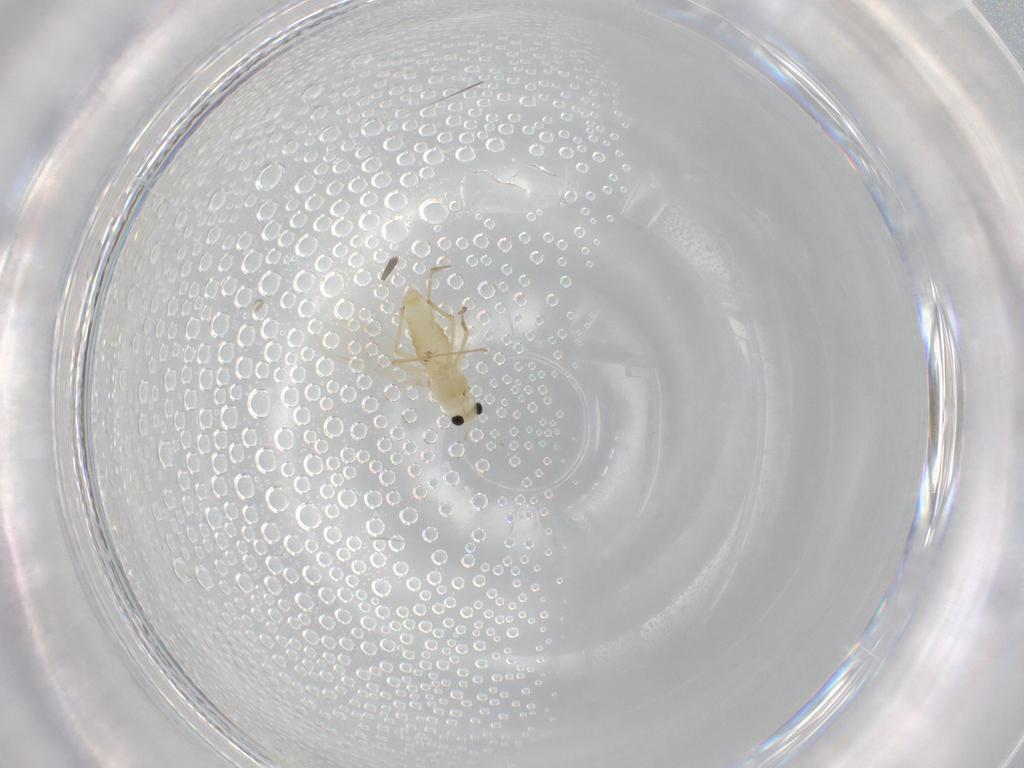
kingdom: Animalia
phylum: Arthropoda
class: Insecta
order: Diptera
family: Chironomidae
